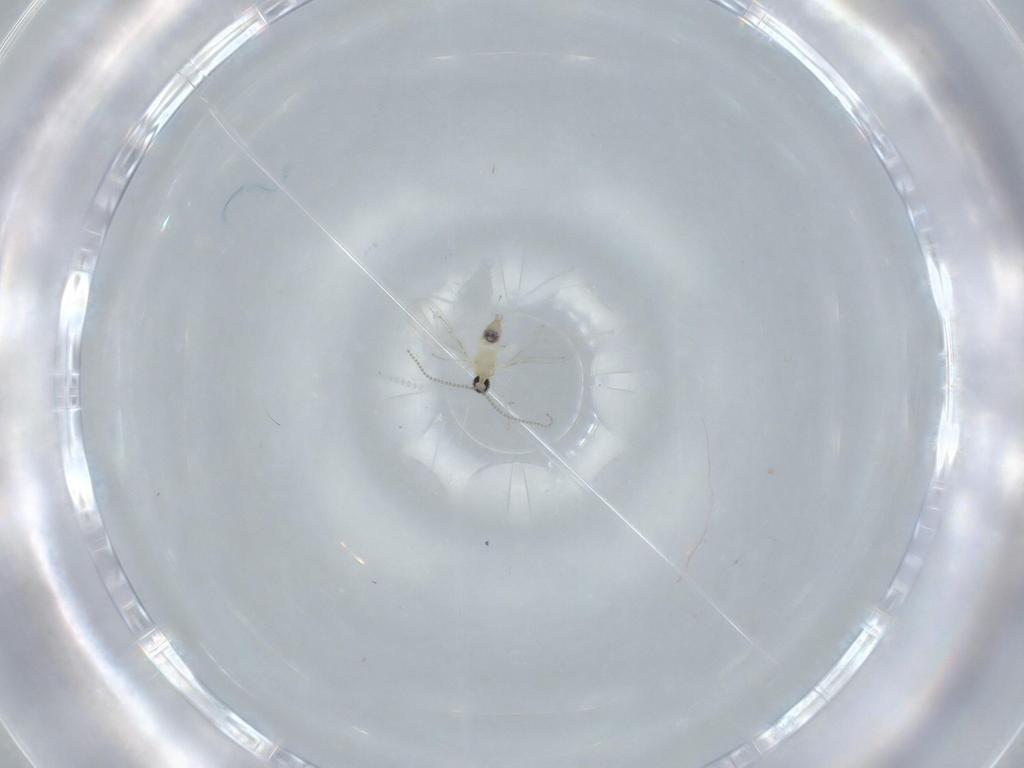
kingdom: Animalia
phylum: Arthropoda
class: Insecta
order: Diptera
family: Cecidomyiidae
